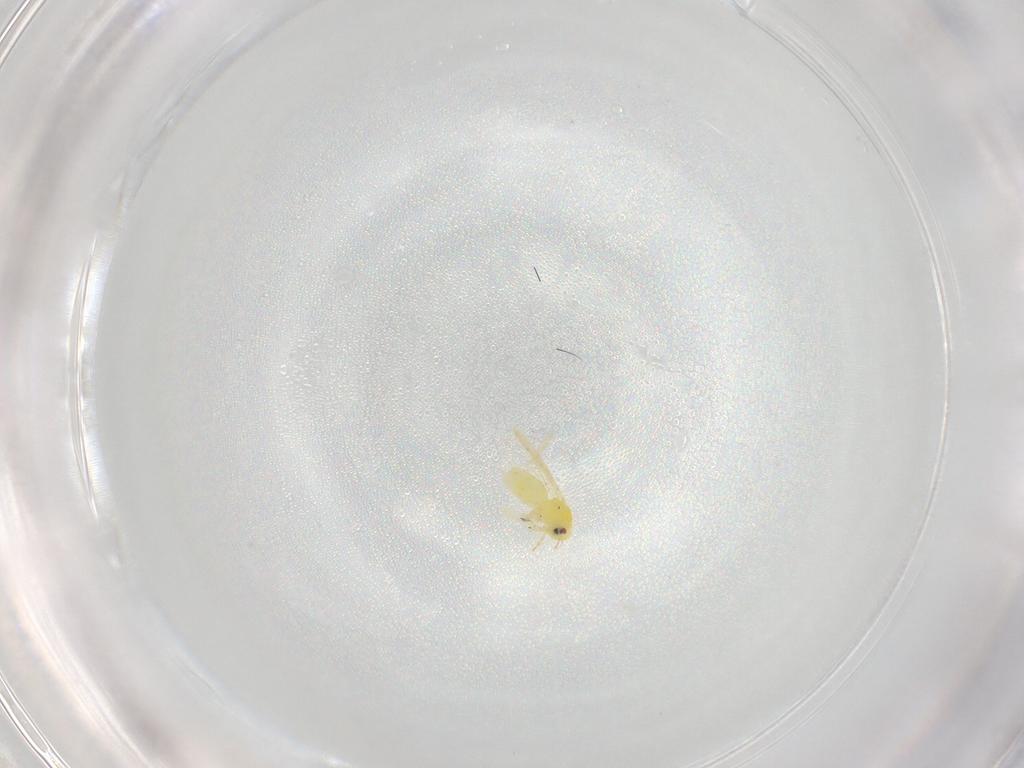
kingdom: Animalia
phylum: Arthropoda
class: Insecta
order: Hemiptera
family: Aleyrodidae
